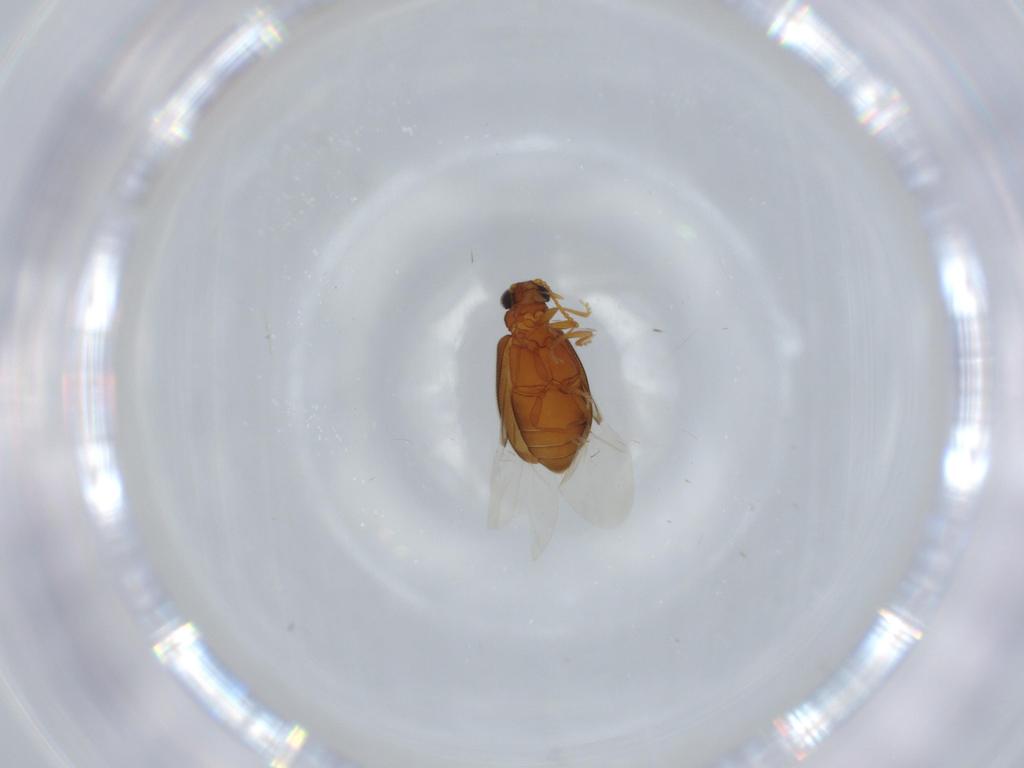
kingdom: Animalia
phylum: Arthropoda
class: Insecta
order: Coleoptera
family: Aderidae
